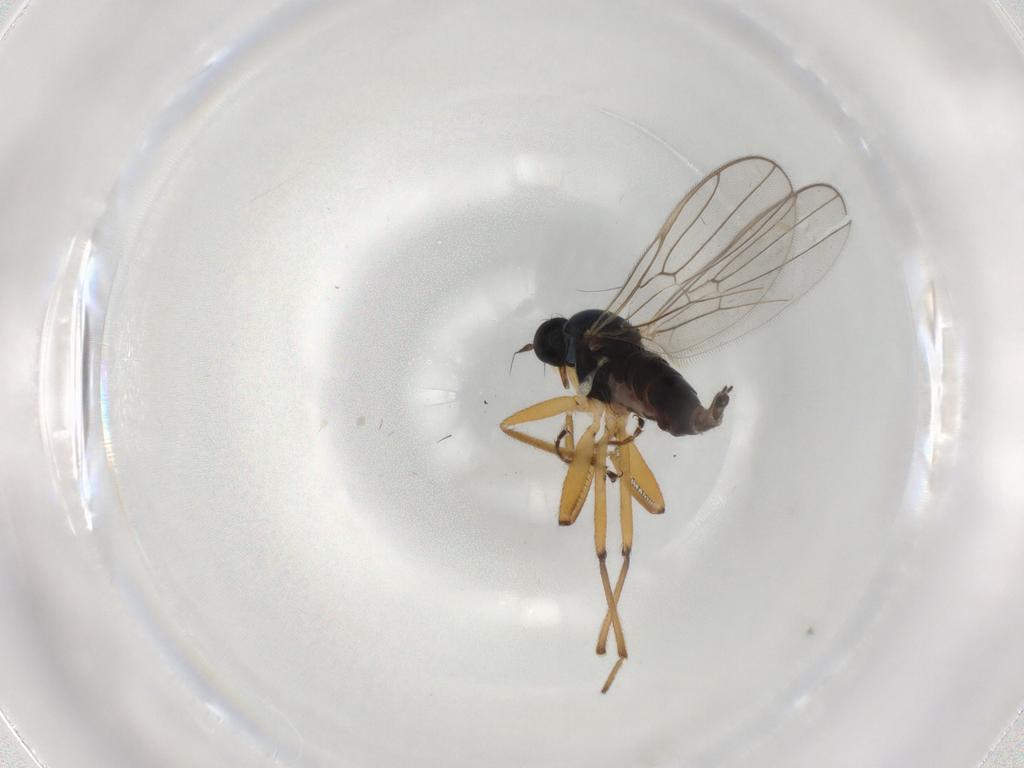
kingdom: Animalia
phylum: Arthropoda
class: Insecta
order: Diptera
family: Hybotidae
